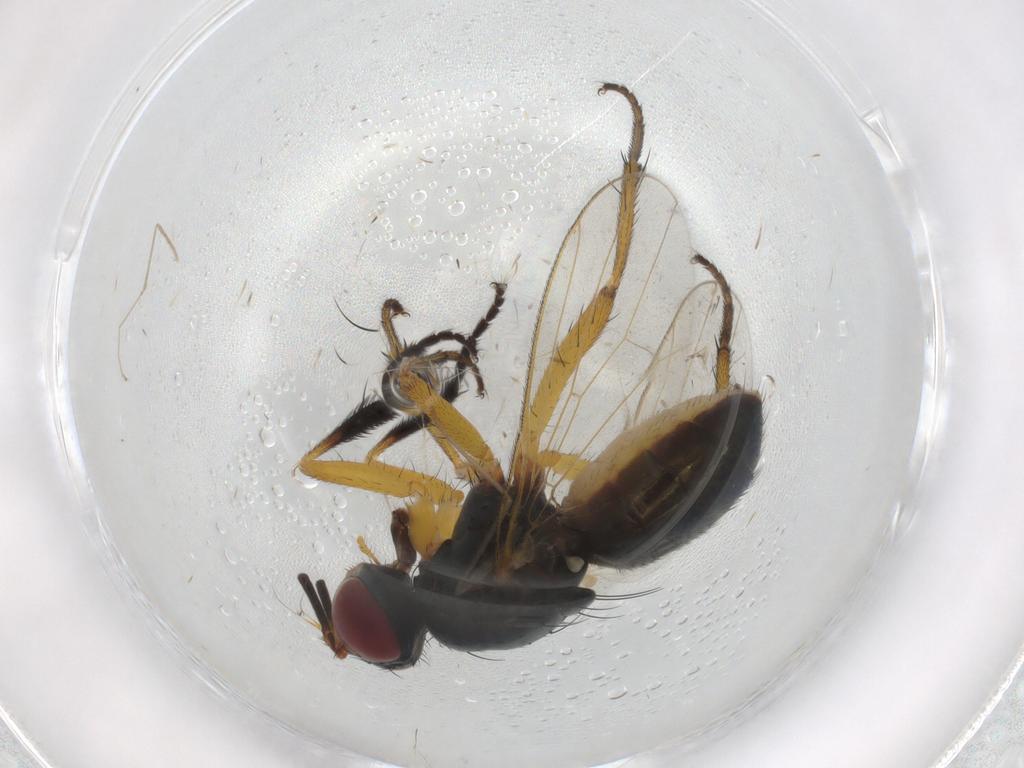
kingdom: Animalia
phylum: Arthropoda
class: Insecta
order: Diptera
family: Muscidae
